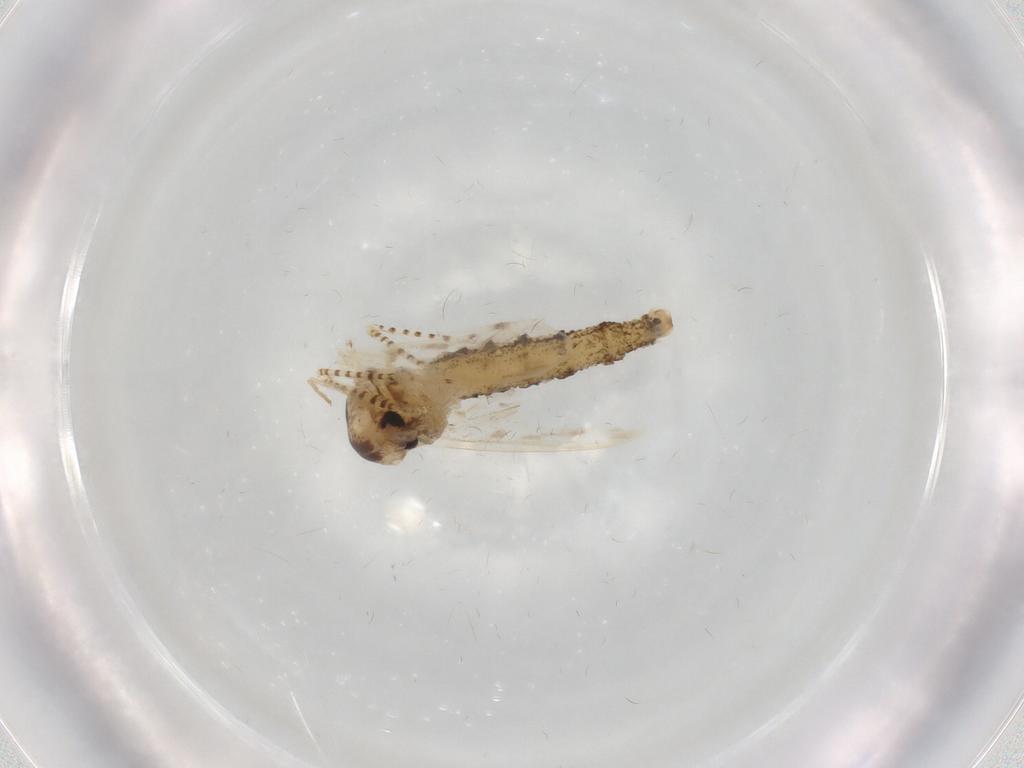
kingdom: Animalia
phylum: Arthropoda
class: Insecta
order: Diptera
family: Chaoboridae
